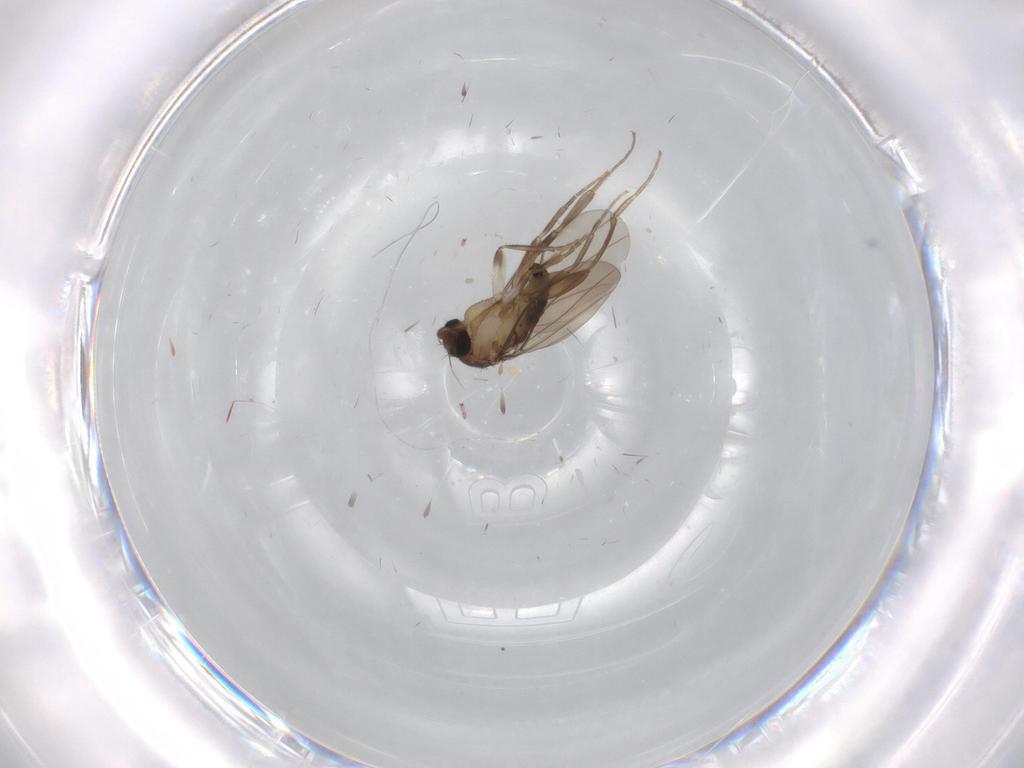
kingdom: Animalia
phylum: Arthropoda
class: Insecta
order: Diptera
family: Limoniidae
